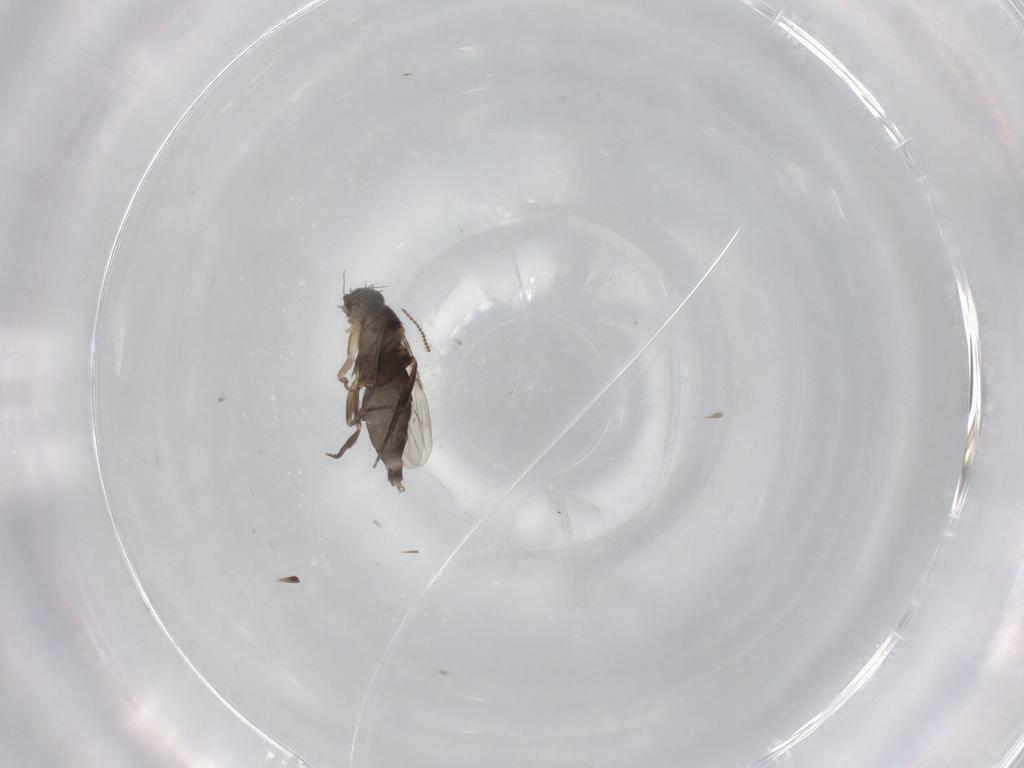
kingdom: Animalia
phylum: Arthropoda
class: Insecta
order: Diptera
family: Phoridae
